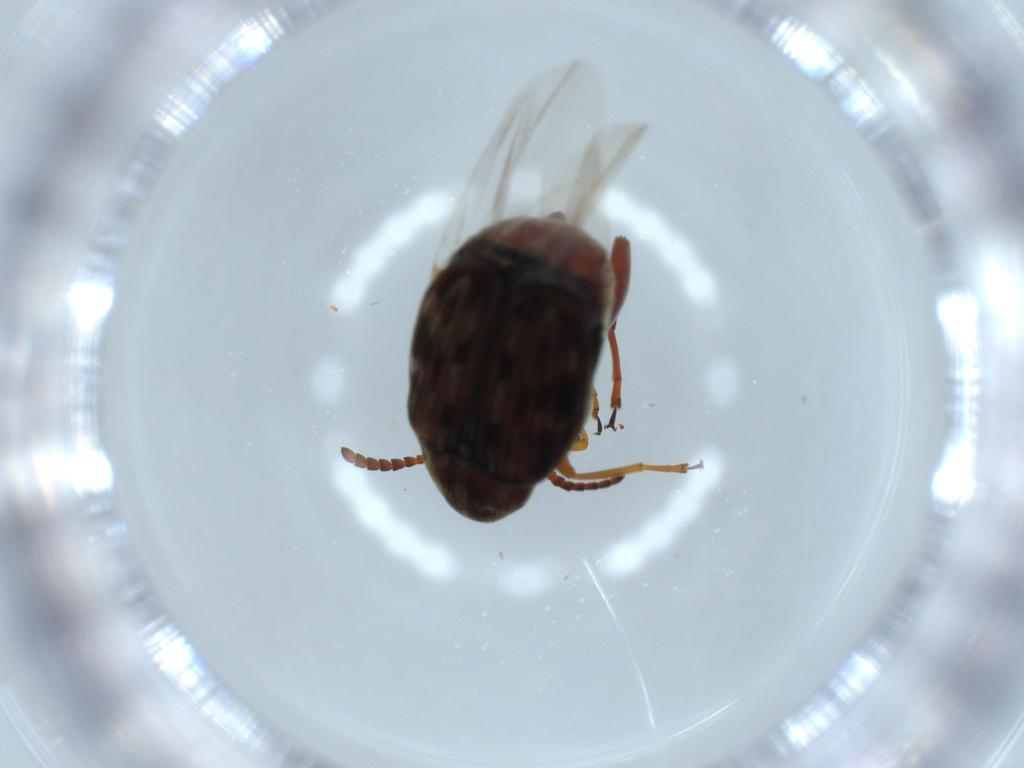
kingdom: Animalia
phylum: Arthropoda
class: Insecta
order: Coleoptera
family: Chrysomelidae
